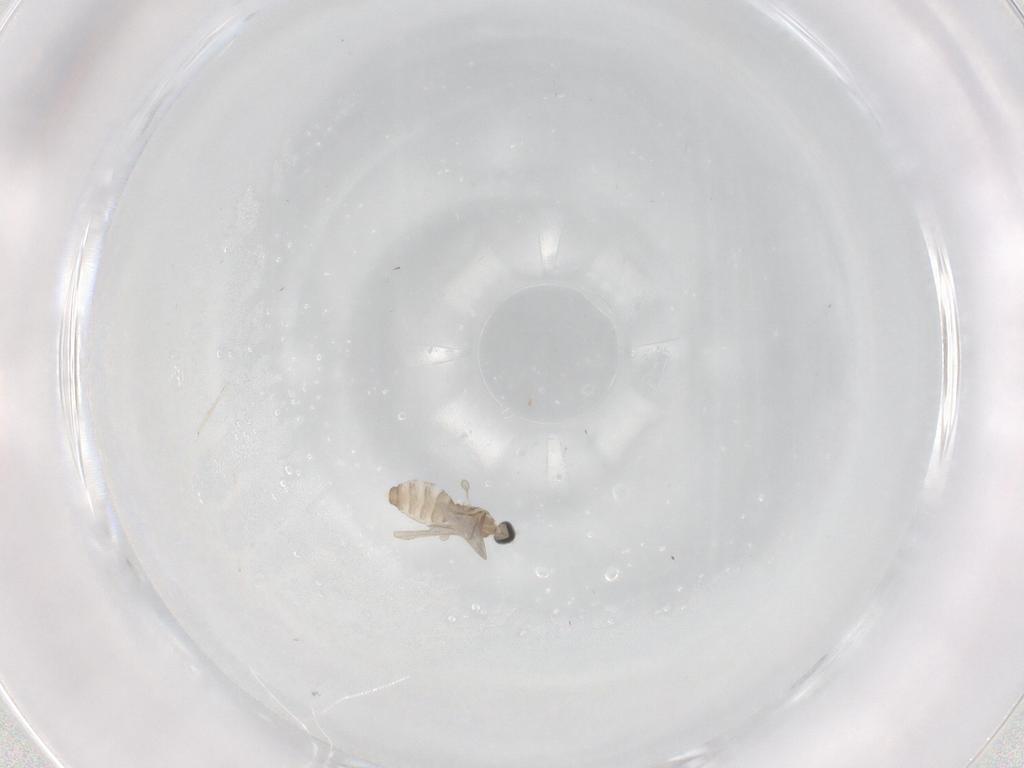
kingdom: Animalia
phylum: Arthropoda
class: Insecta
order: Diptera
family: Cecidomyiidae
